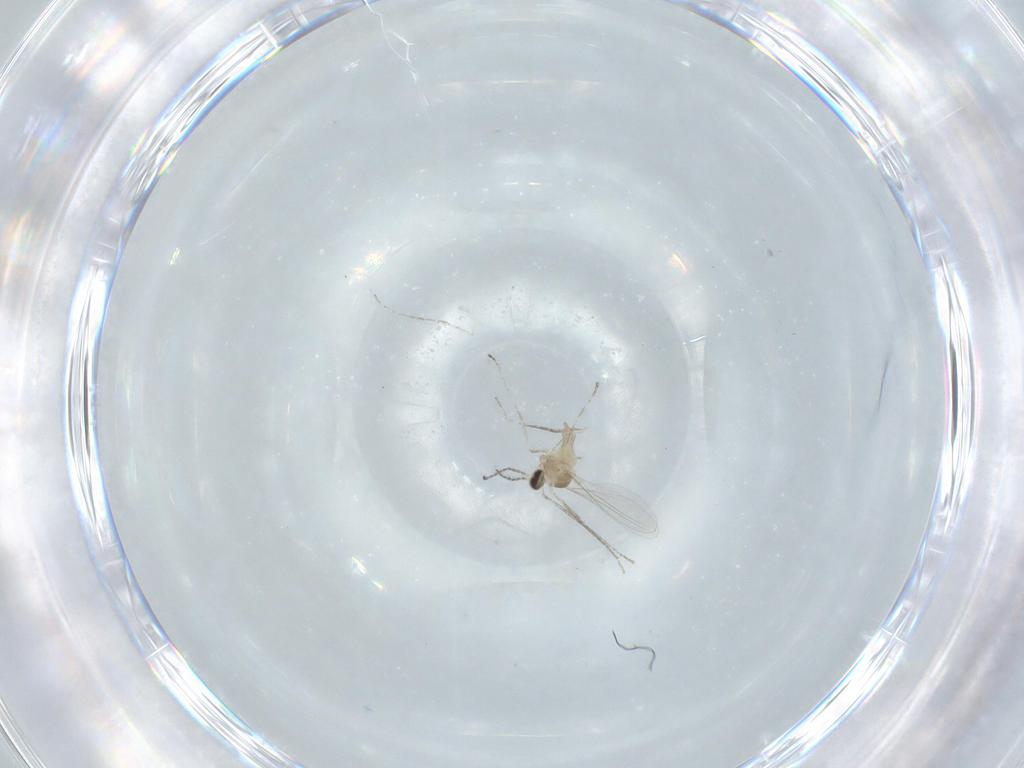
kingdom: Animalia
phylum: Arthropoda
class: Insecta
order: Diptera
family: Cecidomyiidae
